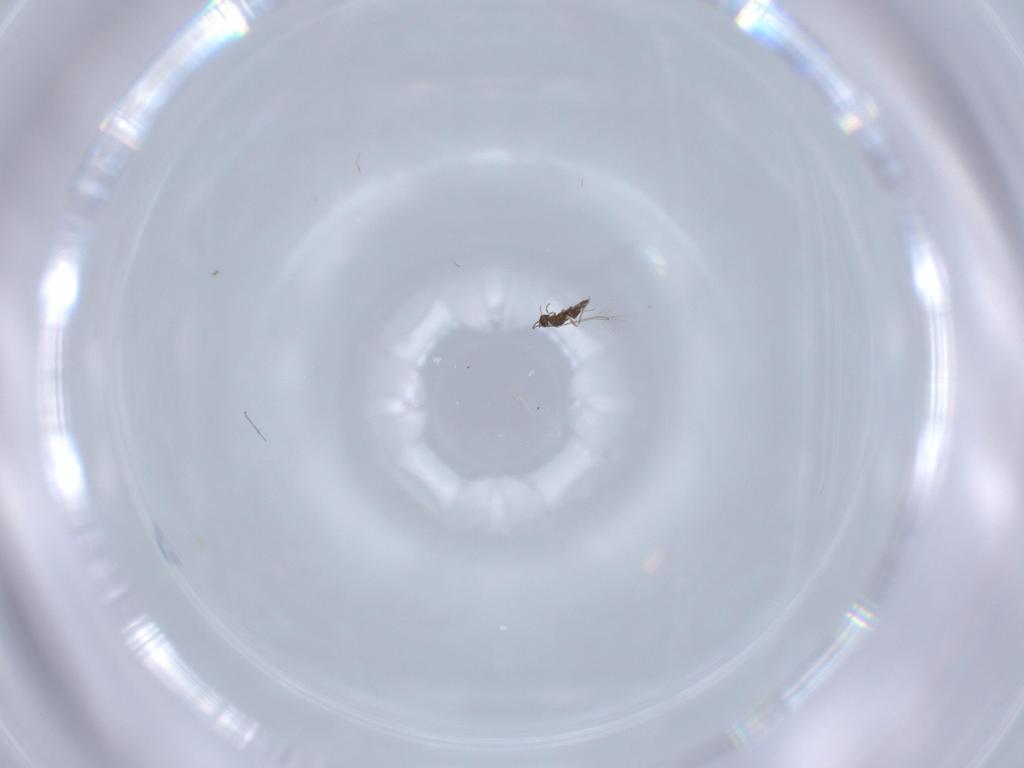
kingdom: Animalia
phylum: Arthropoda
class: Insecta
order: Hymenoptera
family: Mymaridae
